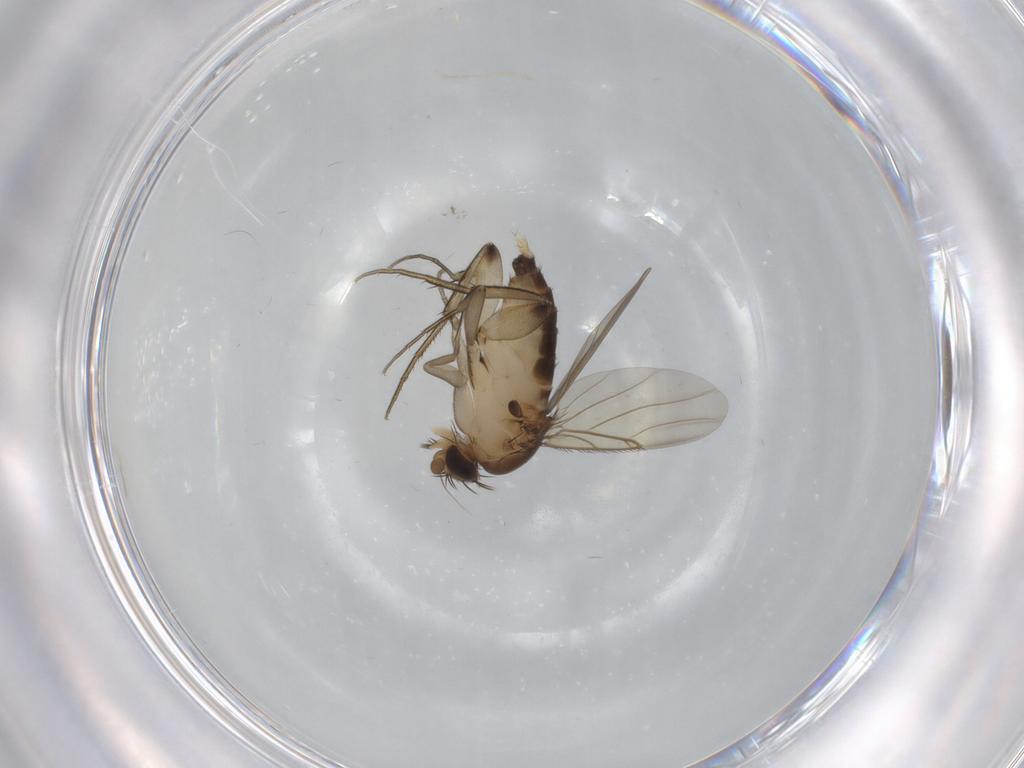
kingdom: Animalia
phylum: Arthropoda
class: Insecta
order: Diptera
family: Phoridae
